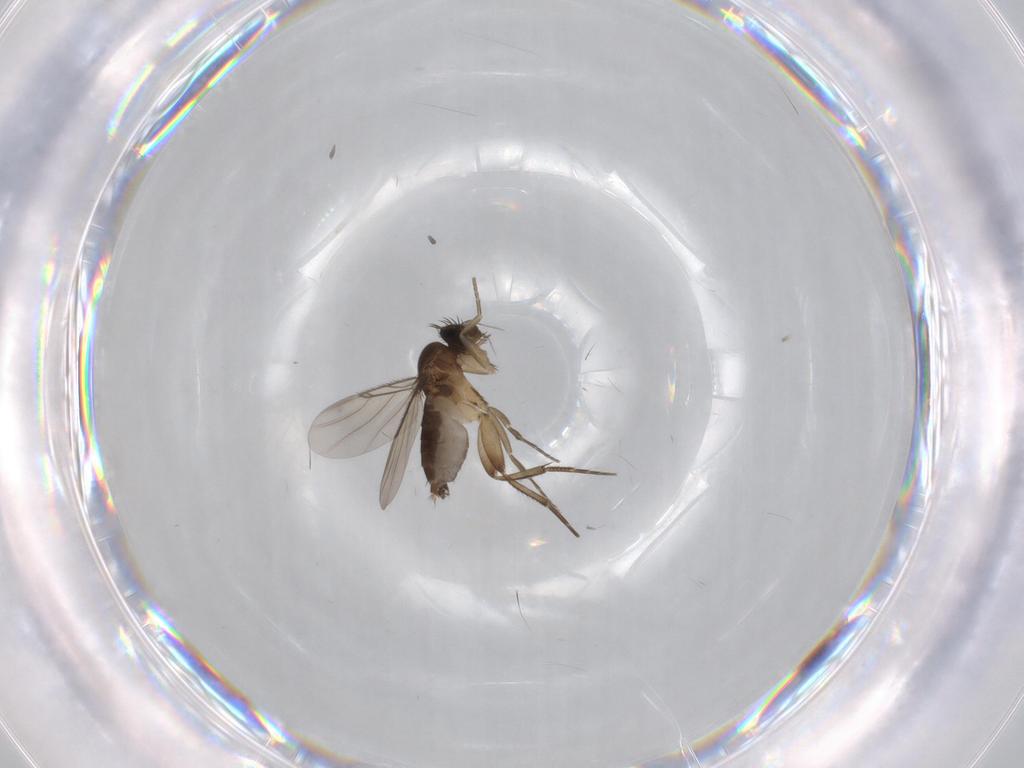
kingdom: Animalia
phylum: Arthropoda
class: Insecta
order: Diptera
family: Phoridae
